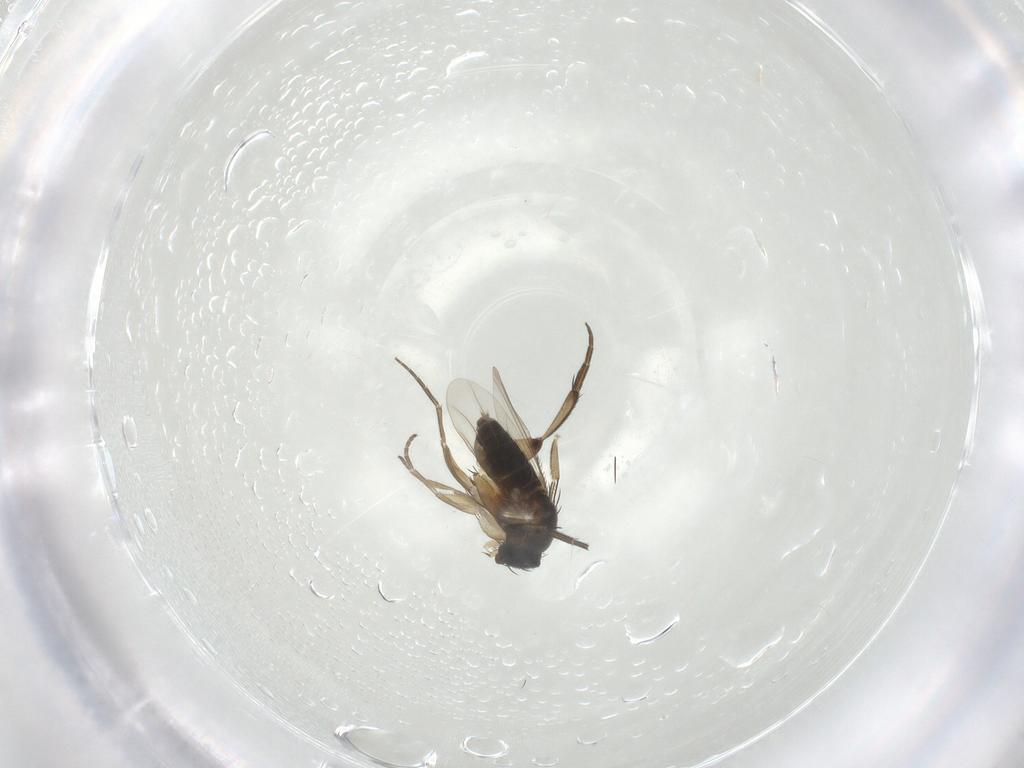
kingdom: Animalia
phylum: Arthropoda
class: Insecta
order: Diptera
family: Phoridae
